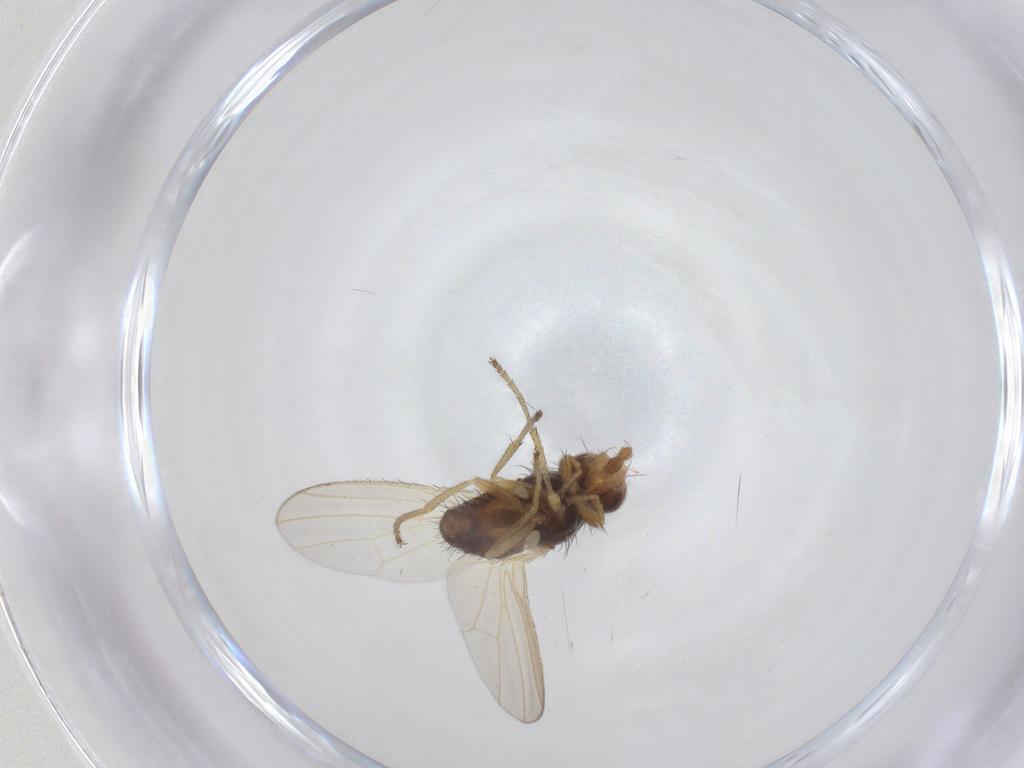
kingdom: Animalia
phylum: Arthropoda
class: Insecta
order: Diptera
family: Heleomyzidae
